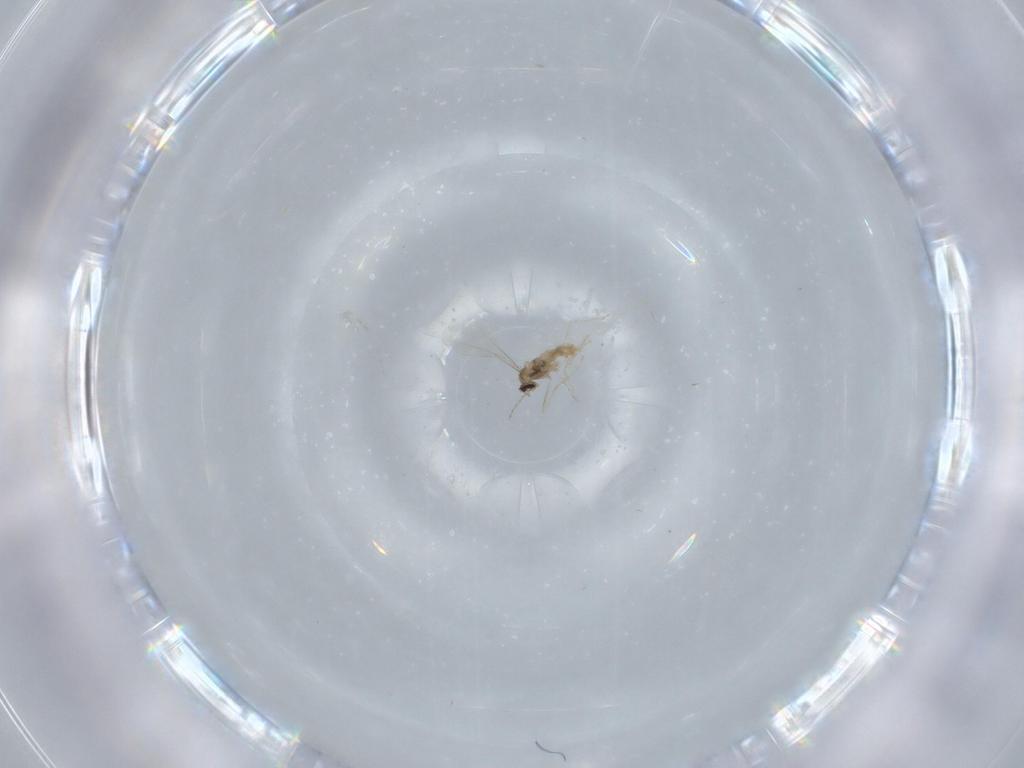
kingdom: Animalia
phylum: Arthropoda
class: Insecta
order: Diptera
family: Cecidomyiidae
